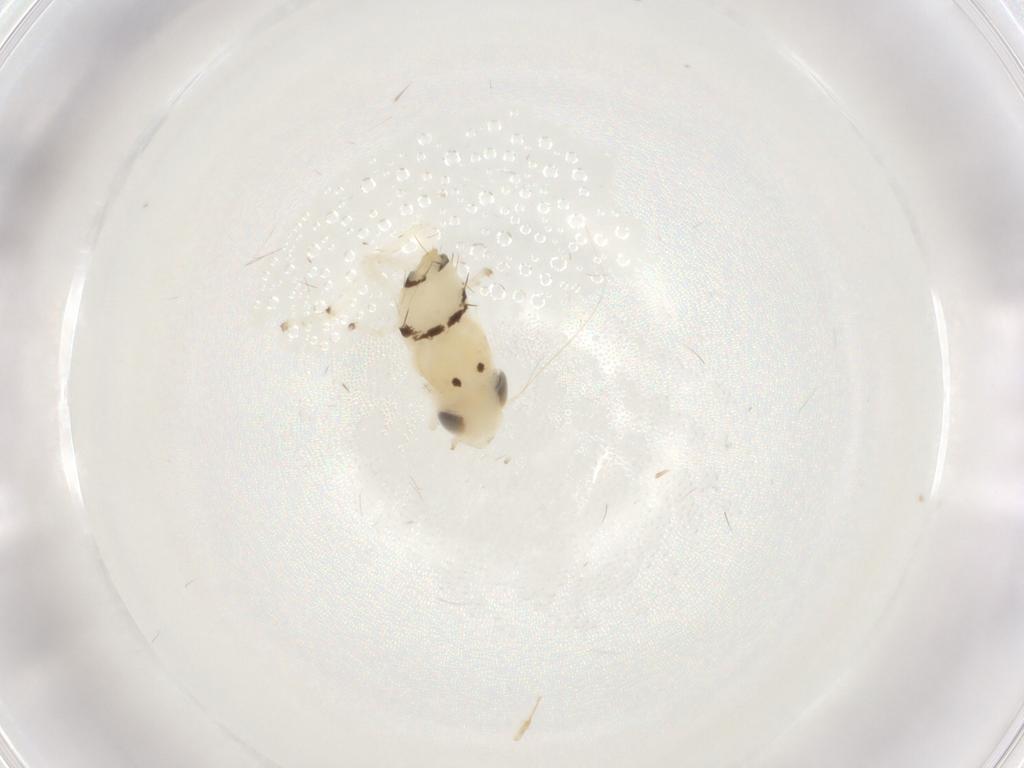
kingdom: Animalia
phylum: Arthropoda
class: Insecta
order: Hemiptera
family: Cicadellidae
